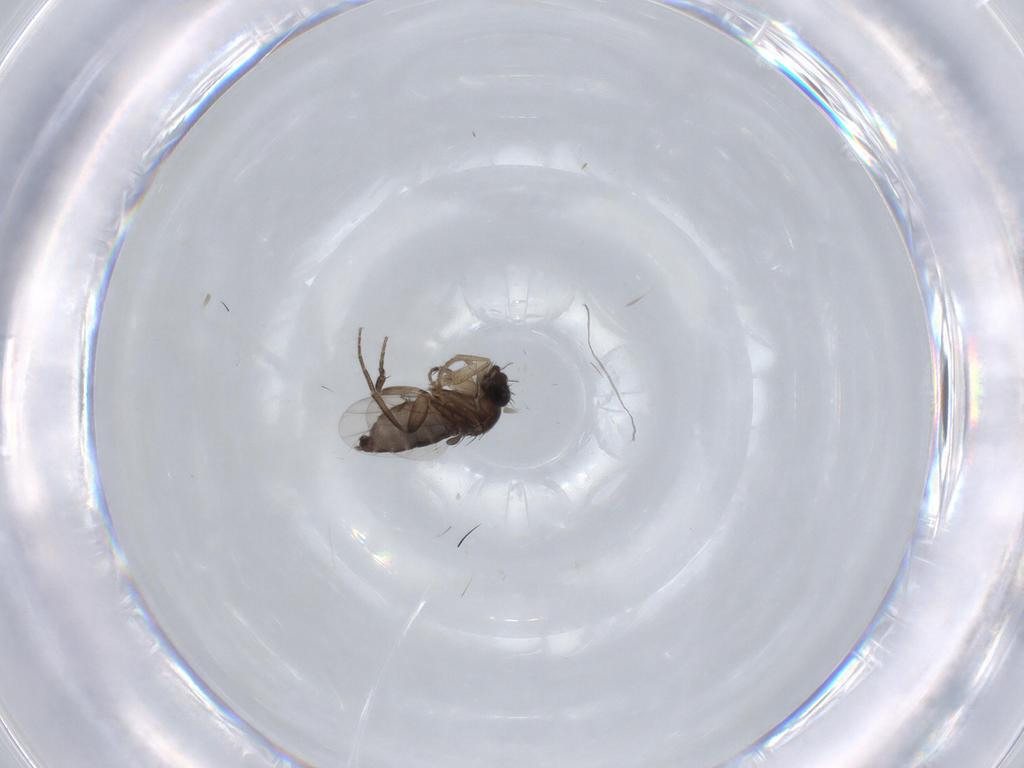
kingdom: Animalia
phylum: Arthropoda
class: Insecta
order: Diptera
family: Phoridae
